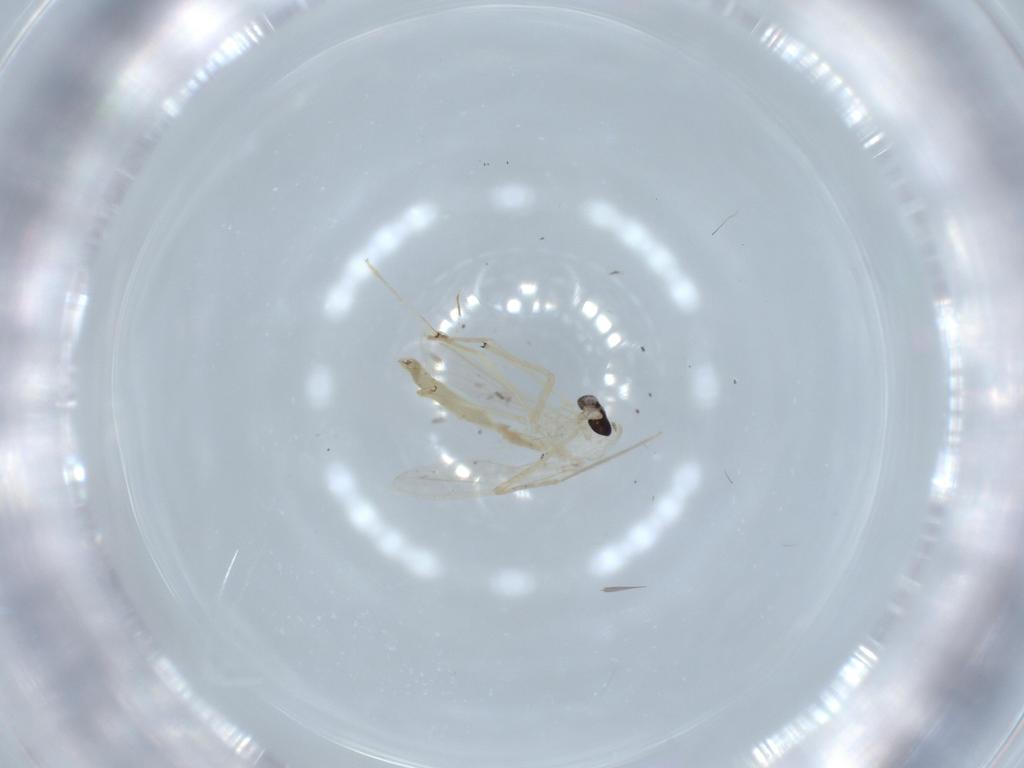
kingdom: Animalia
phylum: Arthropoda
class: Insecta
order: Diptera
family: Chironomidae
